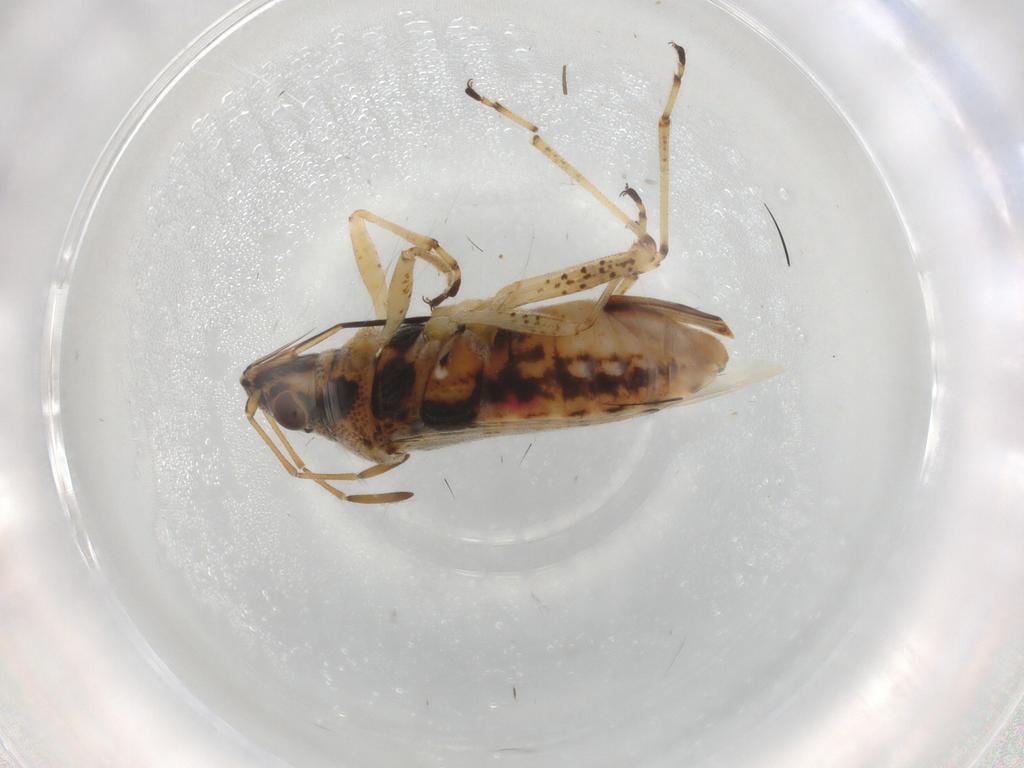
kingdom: Animalia
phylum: Arthropoda
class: Insecta
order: Hemiptera
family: Lygaeidae
